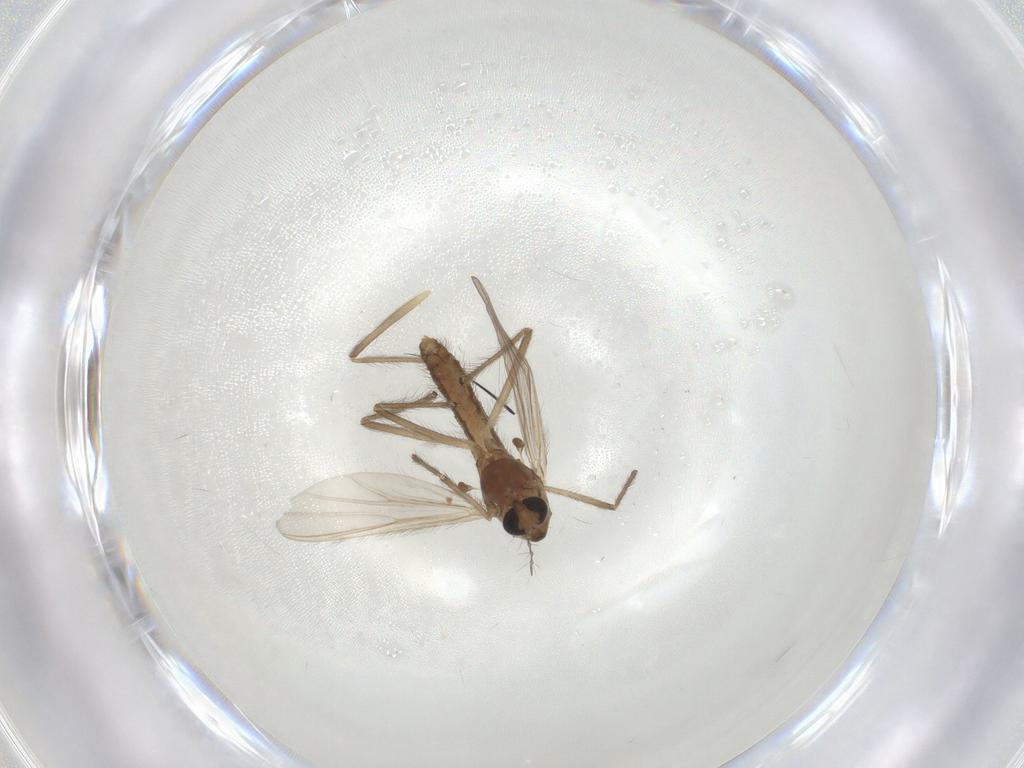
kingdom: Animalia
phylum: Arthropoda
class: Insecta
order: Diptera
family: Chironomidae
